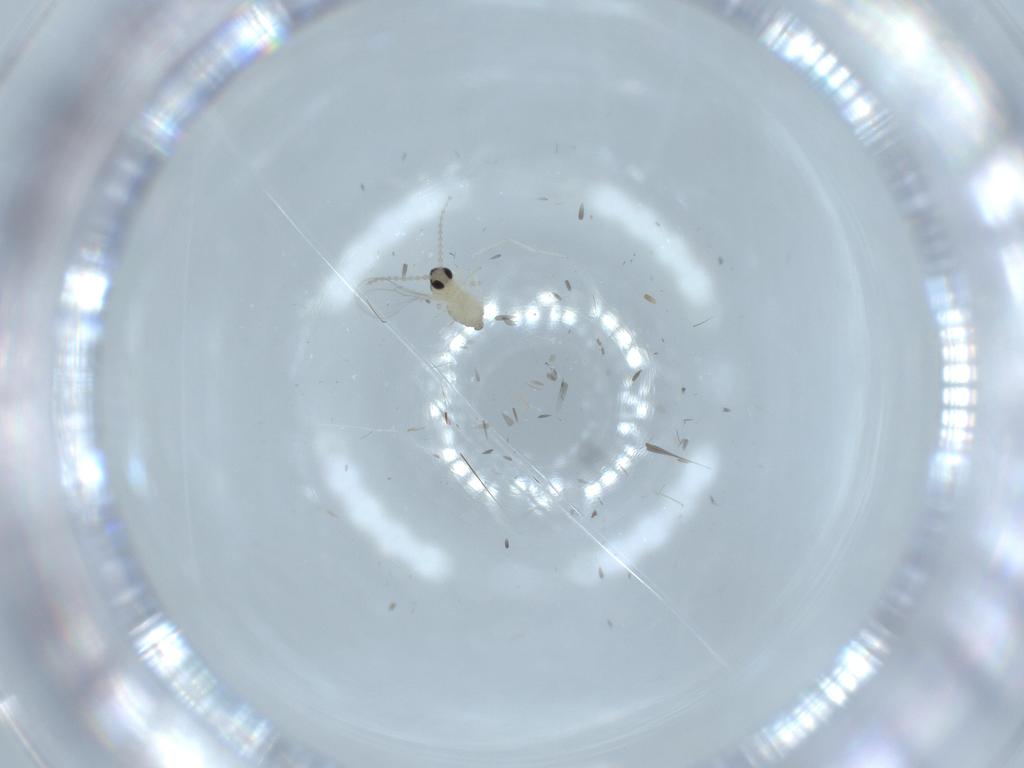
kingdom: Animalia
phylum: Arthropoda
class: Insecta
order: Diptera
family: Cecidomyiidae
